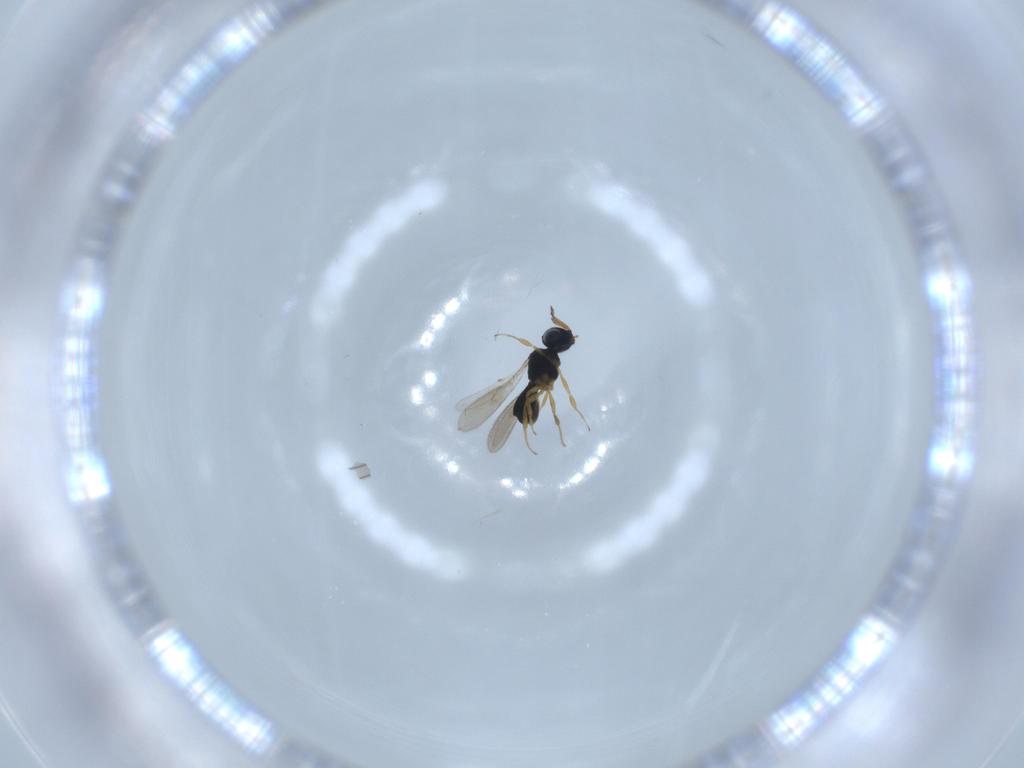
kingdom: Animalia
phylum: Arthropoda
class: Insecta
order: Hymenoptera
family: Scelionidae
